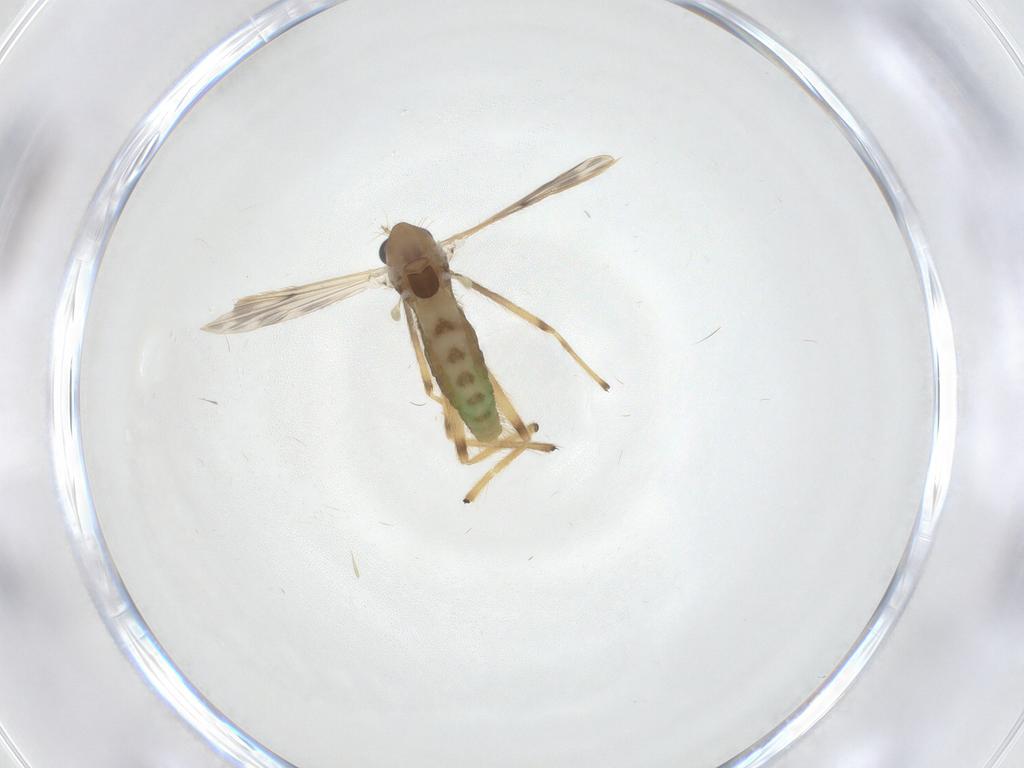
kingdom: Animalia
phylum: Arthropoda
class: Insecta
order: Diptera
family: Chironomidae
